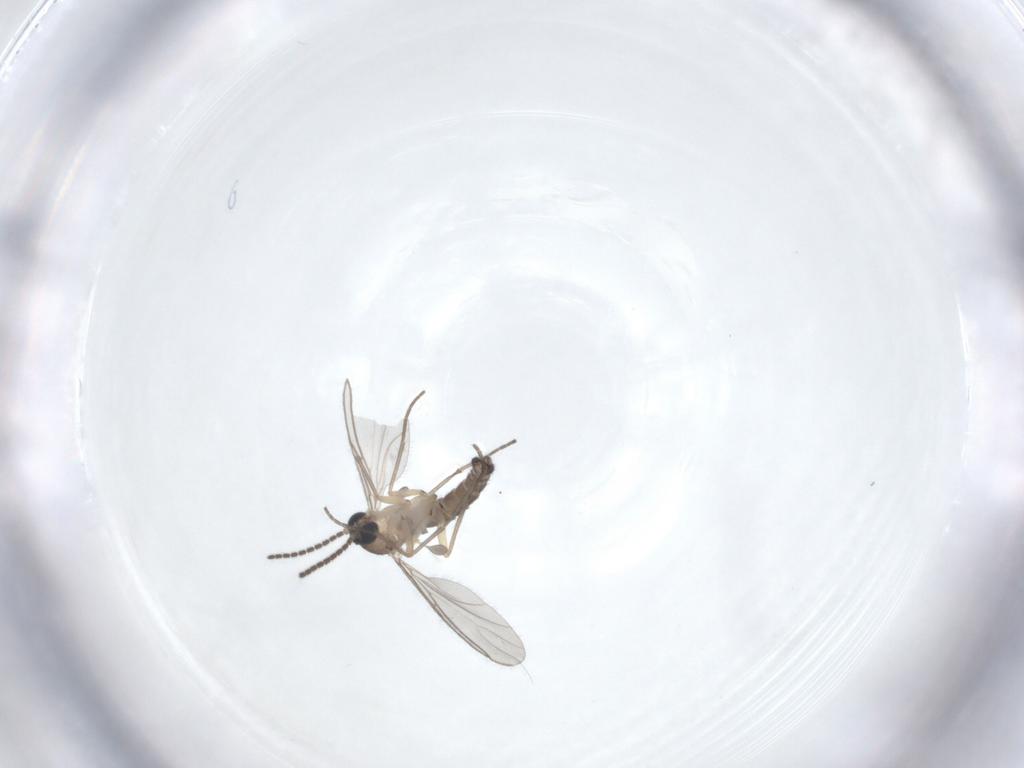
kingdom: Animalia
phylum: Arthropoda
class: Insecta
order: Diptera
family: Sciaridae
